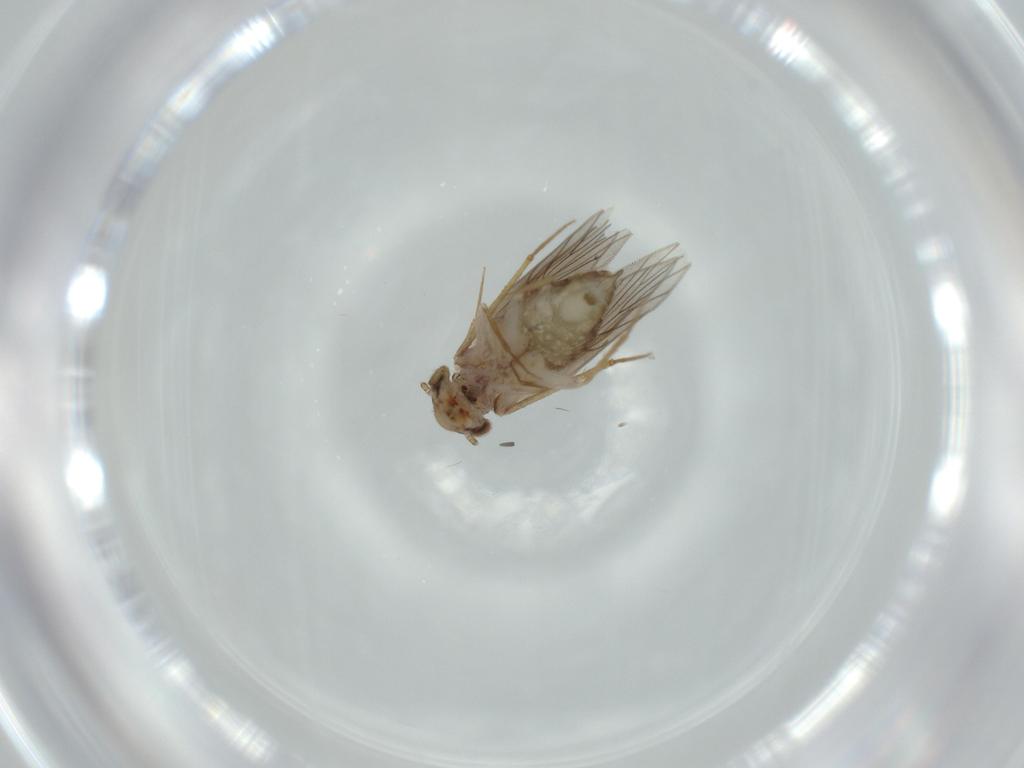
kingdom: Animalia
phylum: Arthropoda
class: Insecta
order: Psocodea
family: Lepidopsocidae
